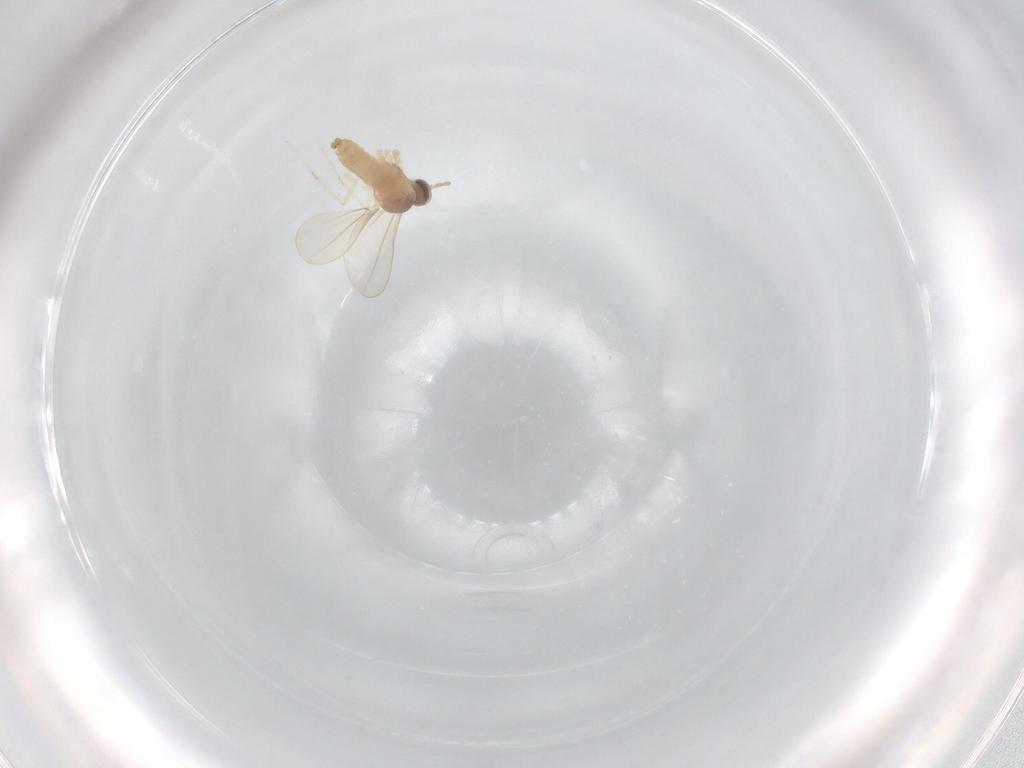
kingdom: Animalia
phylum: Arthropoda
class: Insecta
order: Diptera
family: Cecidomyiidae
